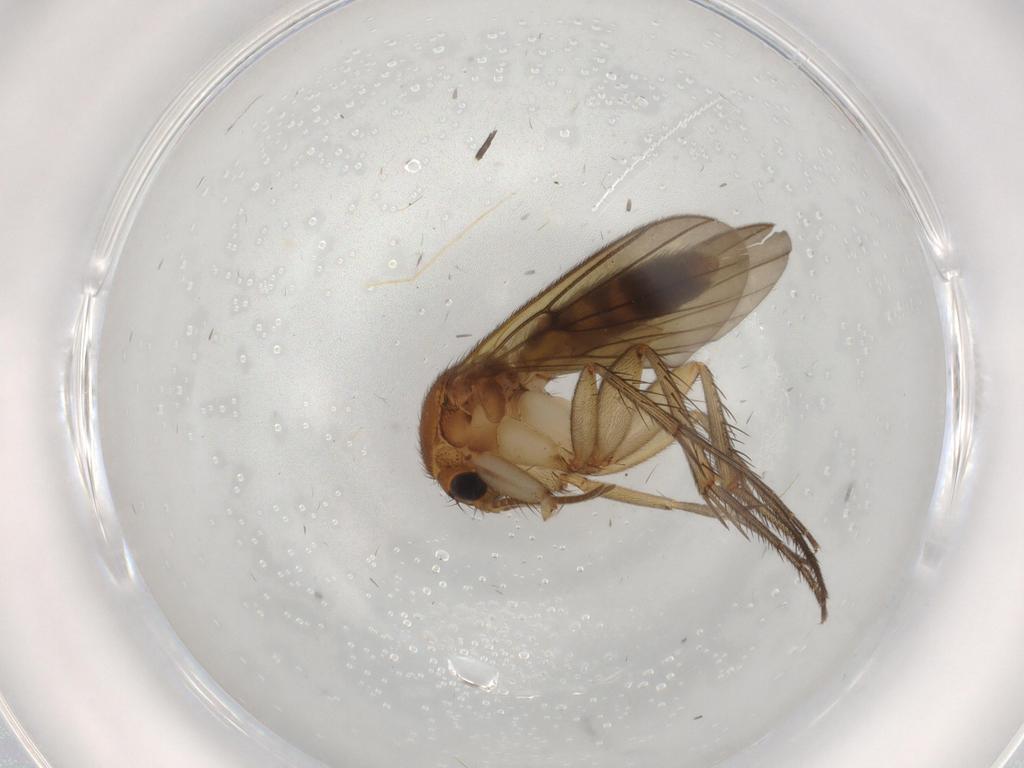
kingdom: Animalia
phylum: Arthropoda
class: Insecta
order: Diptera
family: Mycetophilidae
